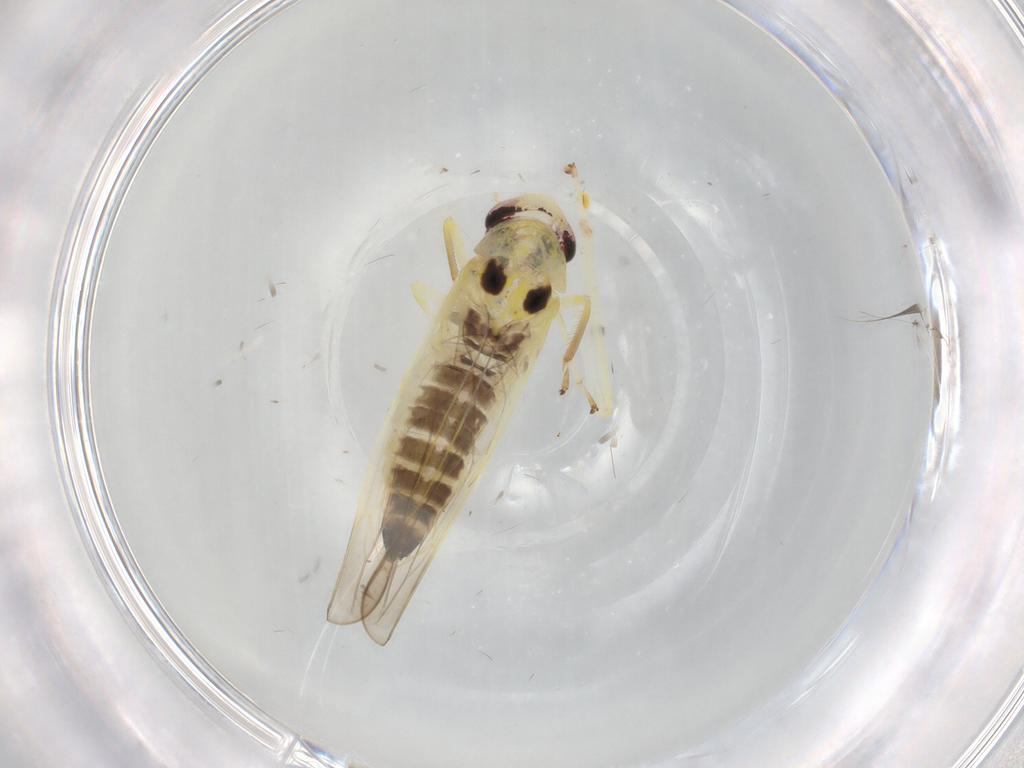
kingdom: Animalia
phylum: Arthropoda
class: Insecta
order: Hemiptera
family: Cicadellidae
